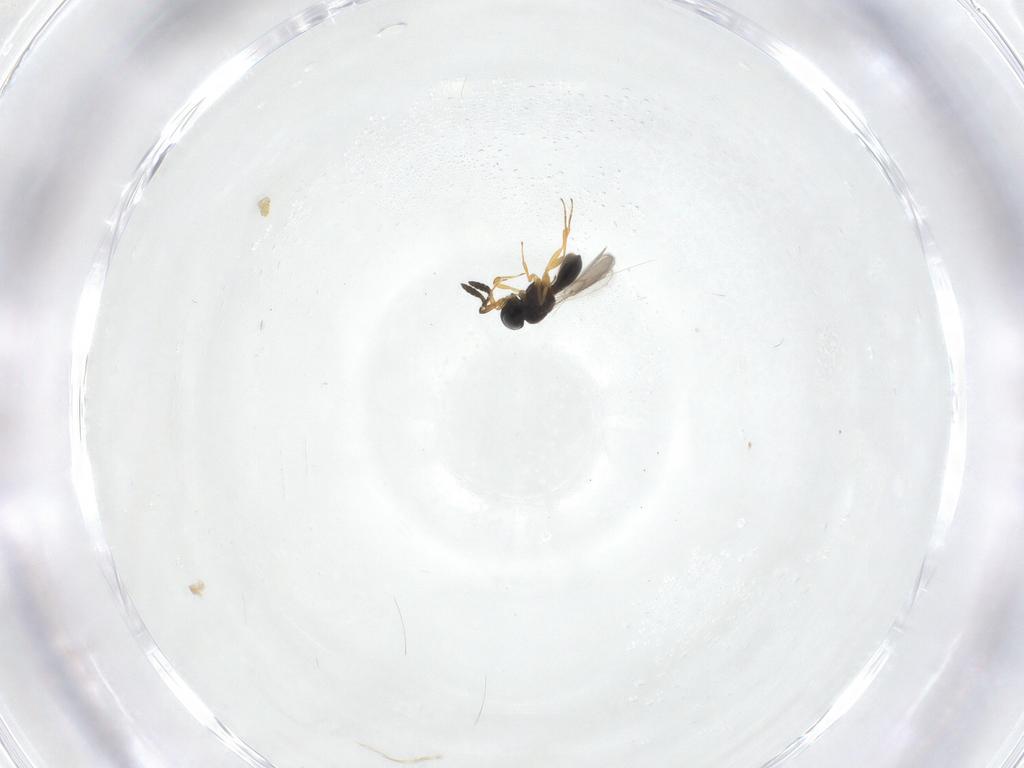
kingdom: Animalia
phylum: Arthropoda
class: Insecta
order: Hymenoptera
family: Scelionidae
